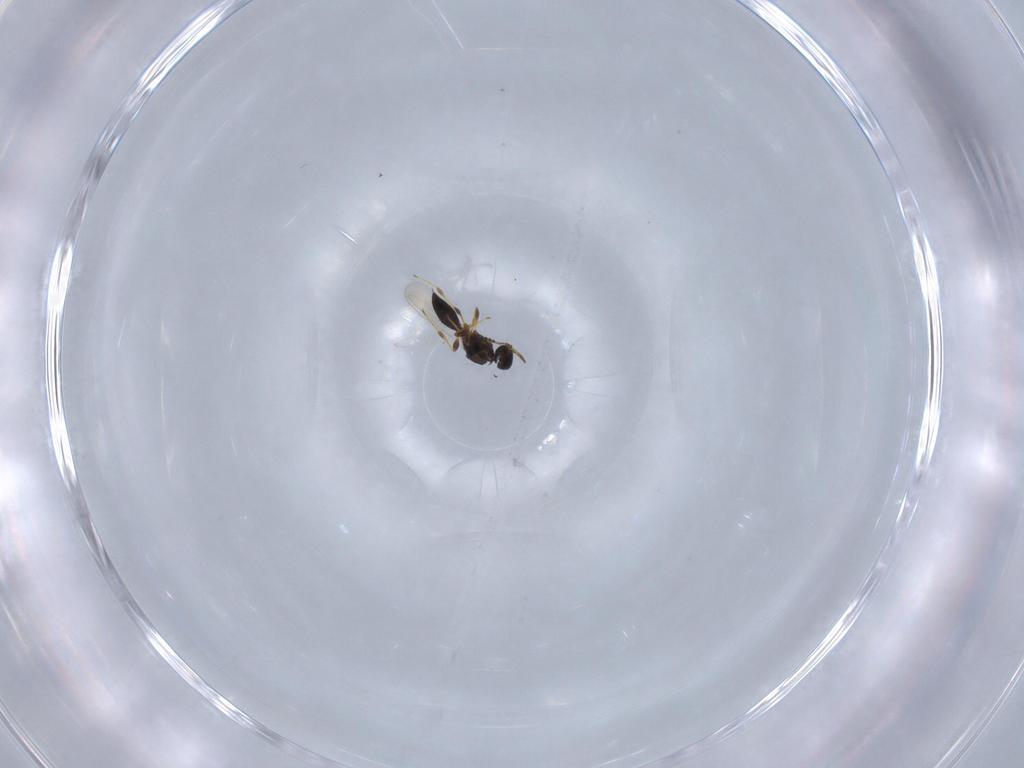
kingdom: Animalia
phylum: Arthropoda
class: Insecta
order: Hymenoptera
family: Platygastridae
